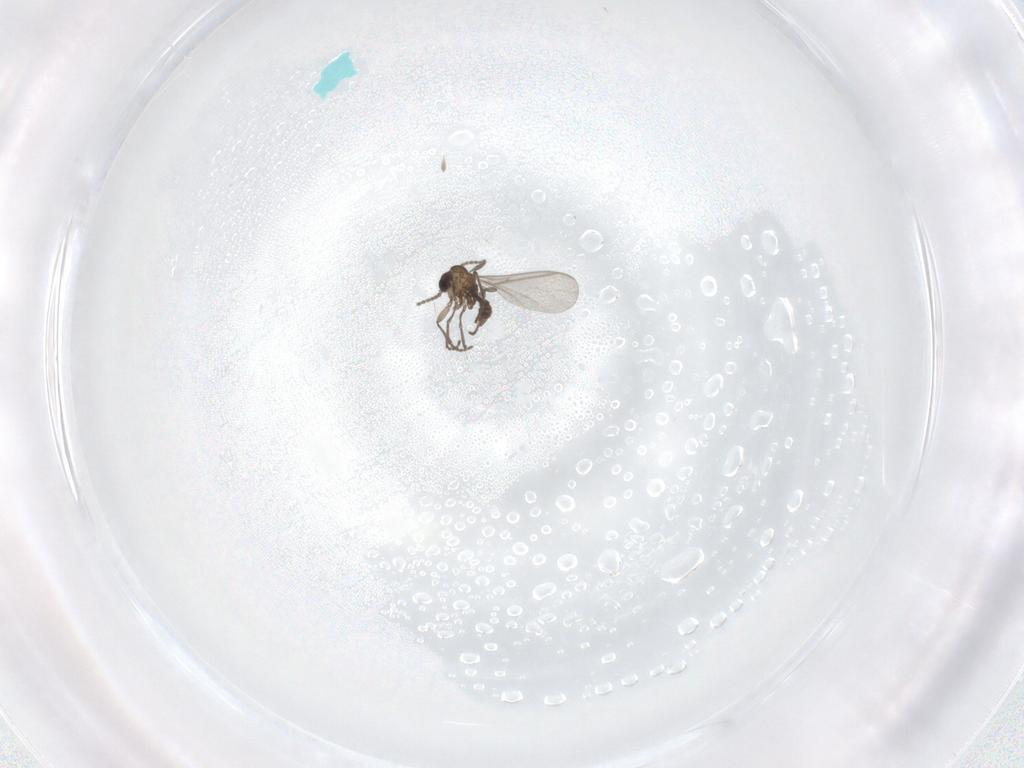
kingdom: Animalia
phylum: Arthropoda
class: Insecta
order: Diptera
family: Sciaridae
